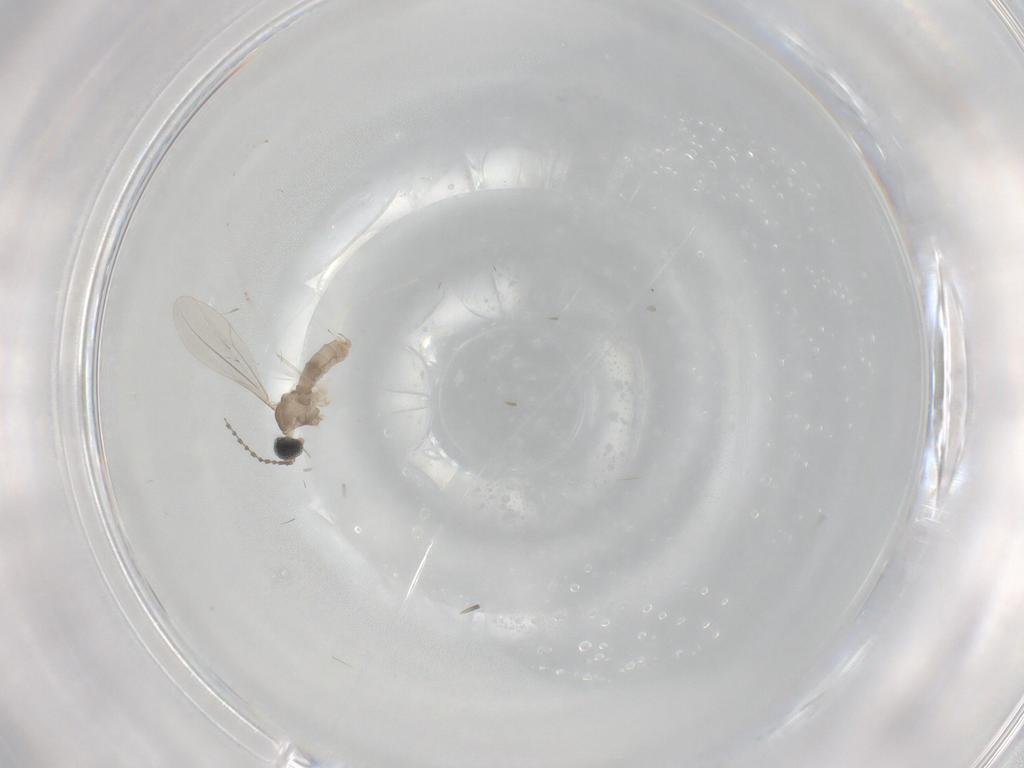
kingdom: Animalia
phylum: Arthropoda
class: Insecta
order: Diptera
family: Cecidomyiidae
